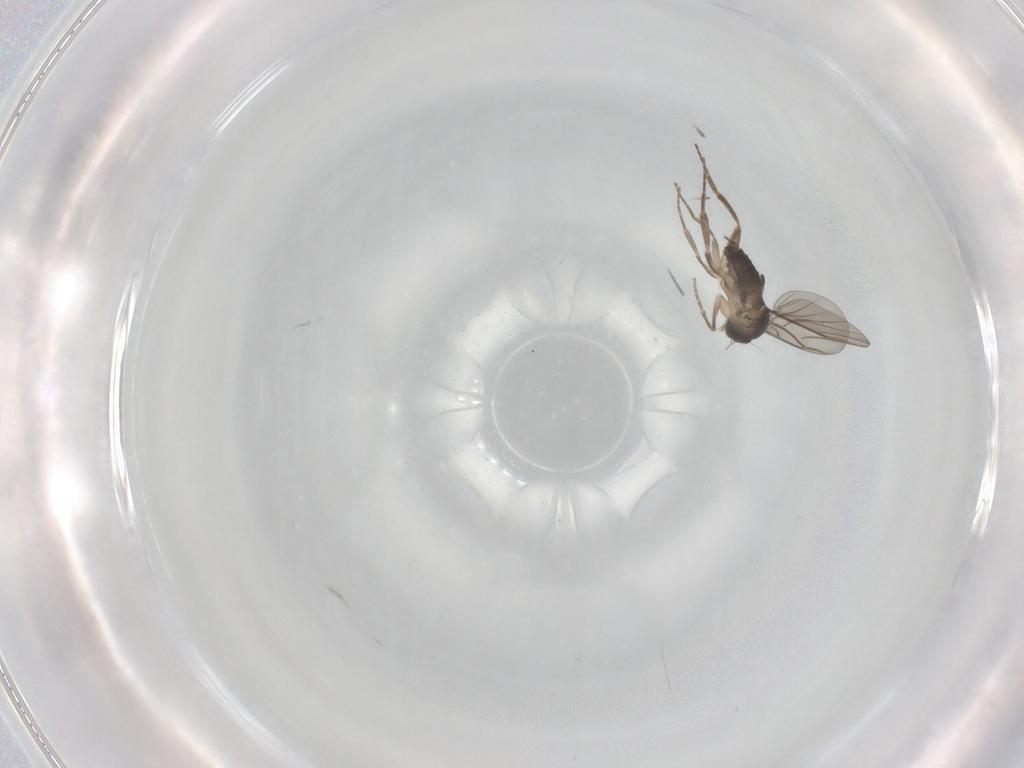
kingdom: Animalia
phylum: Arthropoda
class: Insecta
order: Diptera
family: Phoridae
